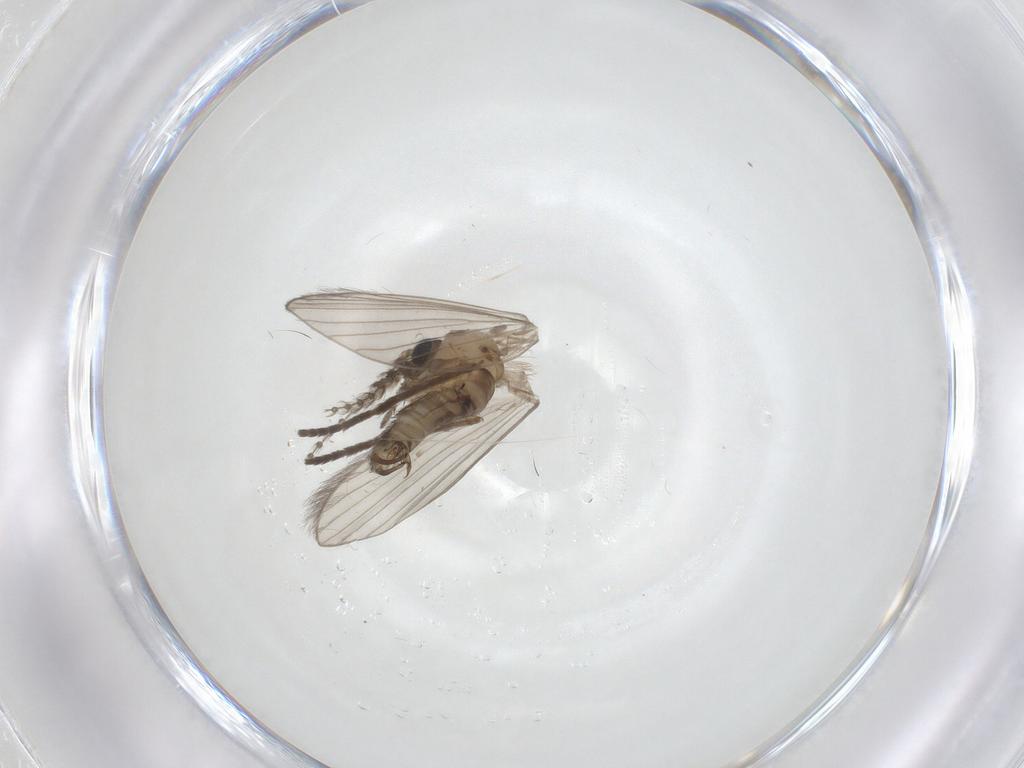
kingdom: Animalia
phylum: Arthropoda
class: Insecta
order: Diptera
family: Psychodidae
